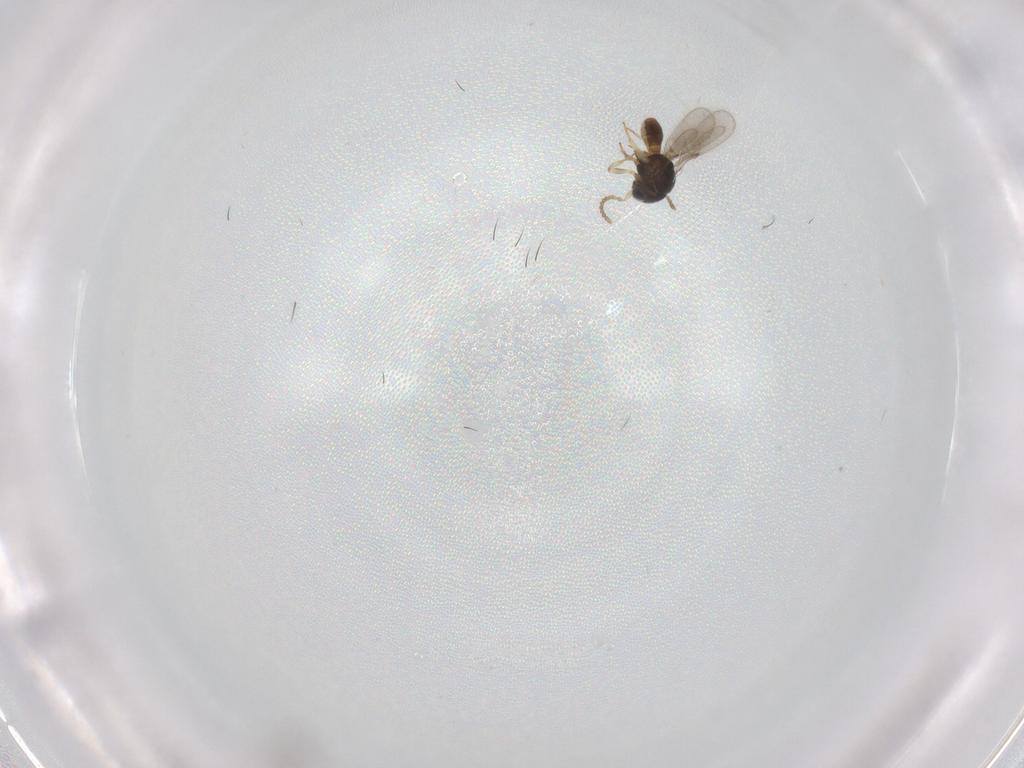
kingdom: Animalia
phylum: Arthropoda
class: Insecta
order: Hymenoptera
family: Scelionidae
